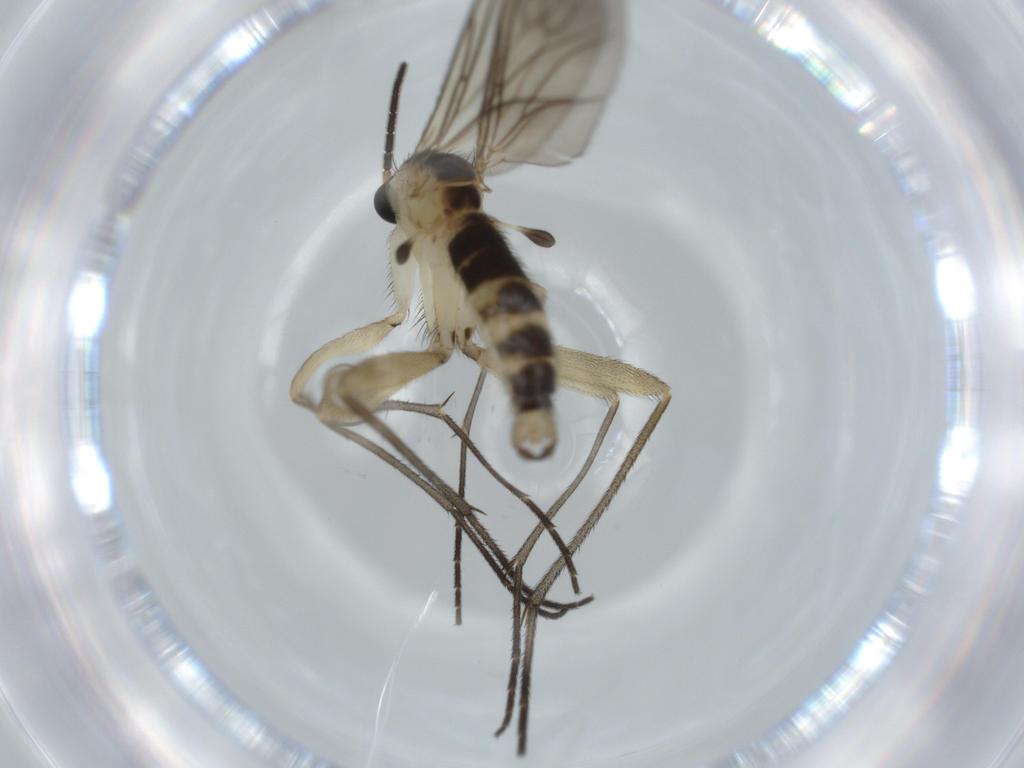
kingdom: Animalia
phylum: Arthropoda
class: Insecta
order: Diptera
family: Sciaridae
